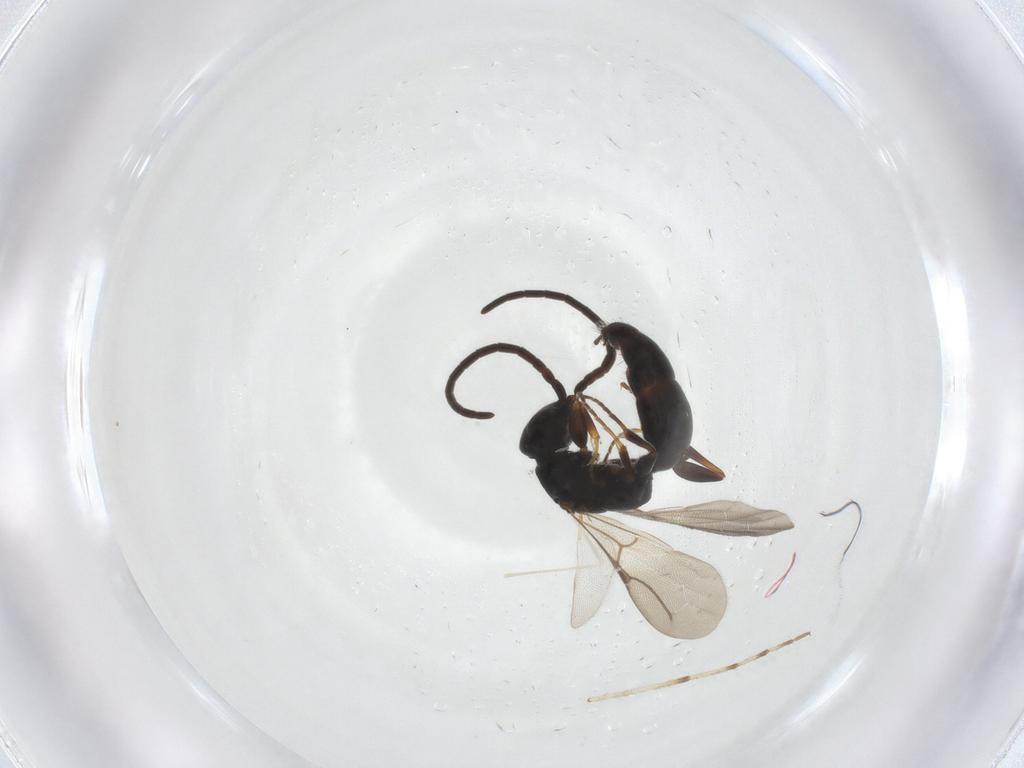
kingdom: Animalia
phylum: Arthropoda
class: Insecta
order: Hymenoptera
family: Bethylidae
